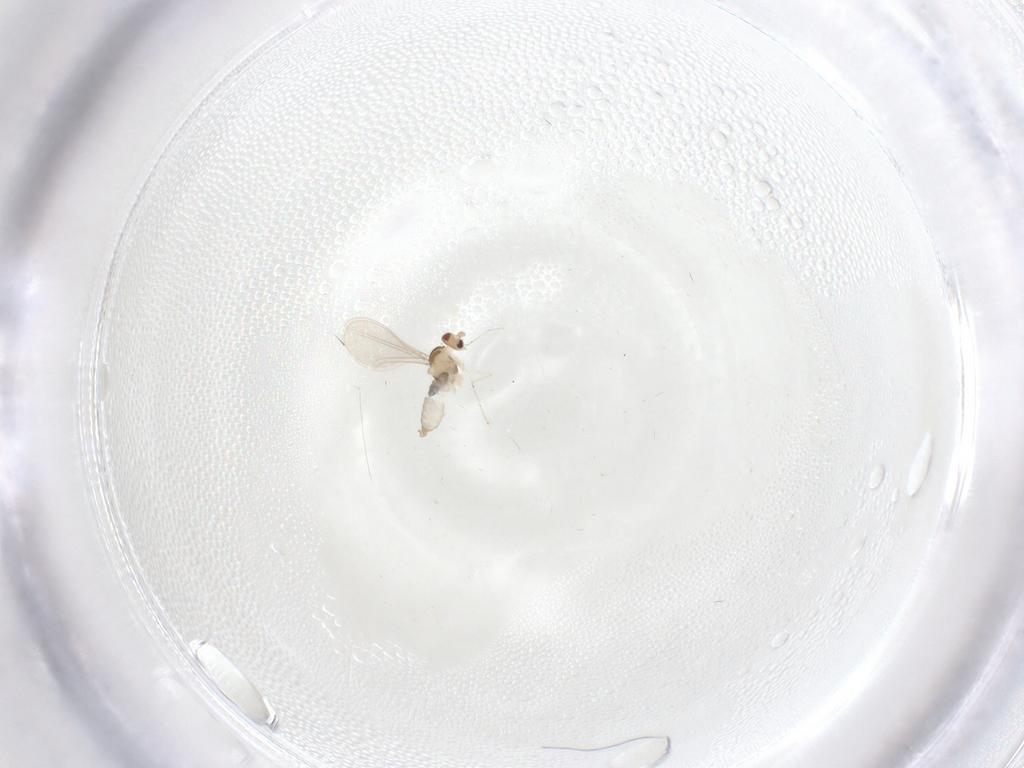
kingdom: Animalia
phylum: Arthropoda
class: Insecta
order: Diptera
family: Cecidomyiidae
